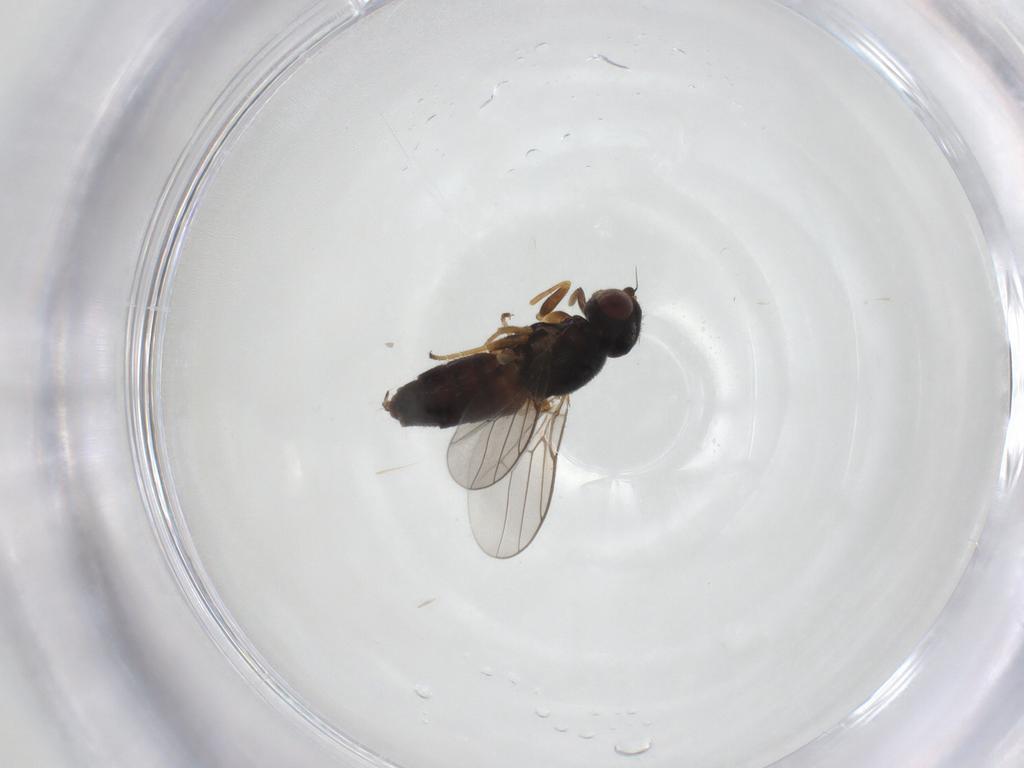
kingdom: Animalia
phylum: Arthropoda
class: Insecta
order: Diptera
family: Chloropidae
